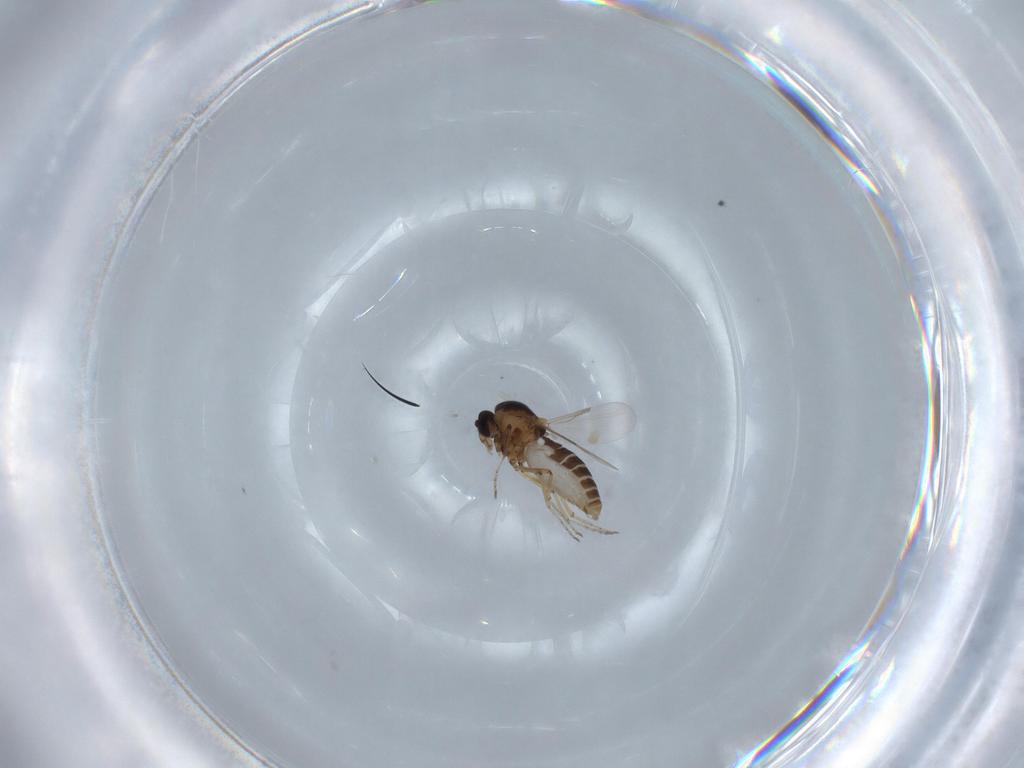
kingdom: Animalia
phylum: Arthropoda
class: Insecta
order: Diptera
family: Ceratopogonidae
